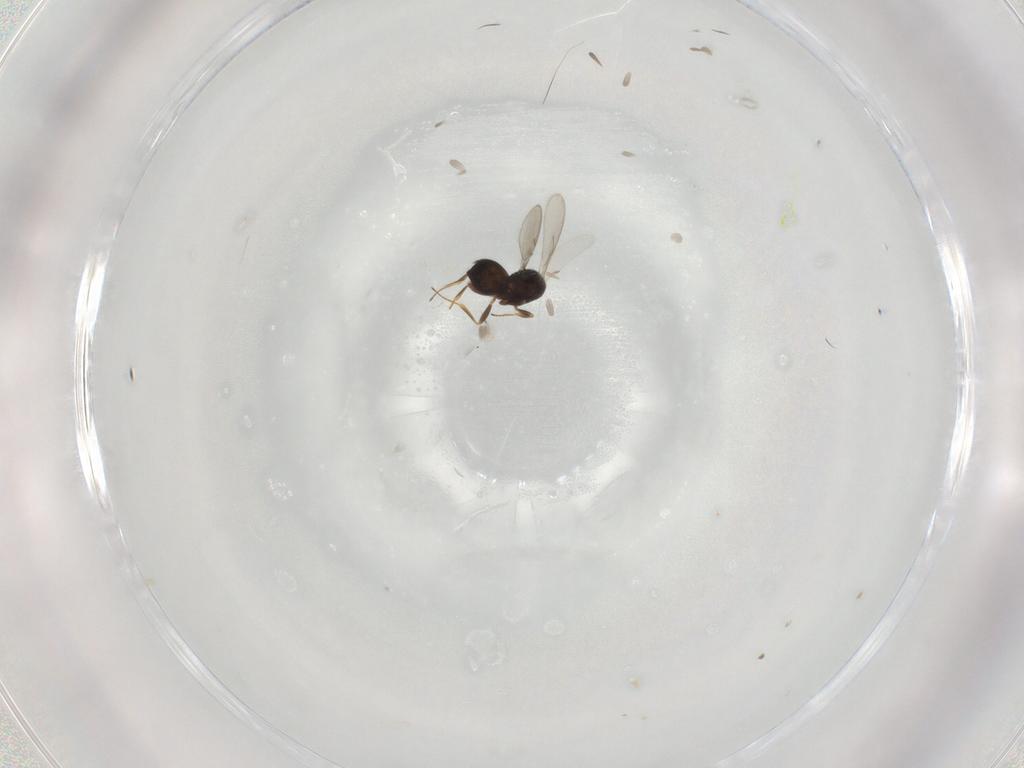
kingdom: Animalia
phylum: Arthropoda
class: Insecta
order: Hymenoptera
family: Scelionidae
